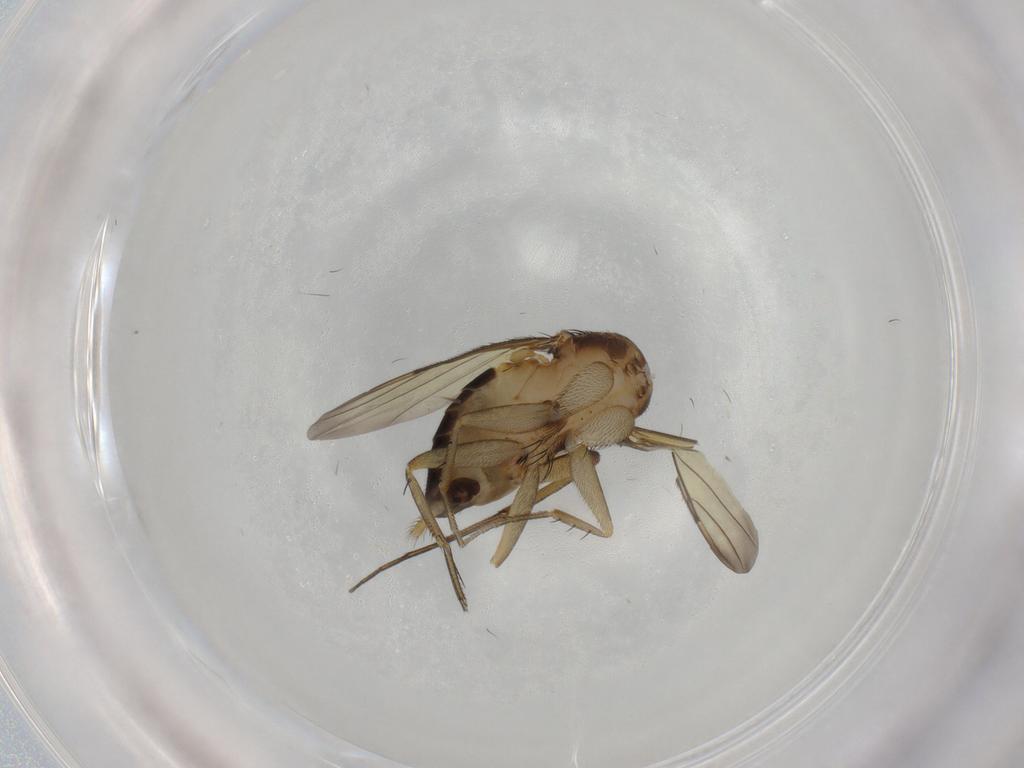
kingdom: Animalia
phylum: Arthropoda
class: Insecta
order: Diptera
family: Phoridae
